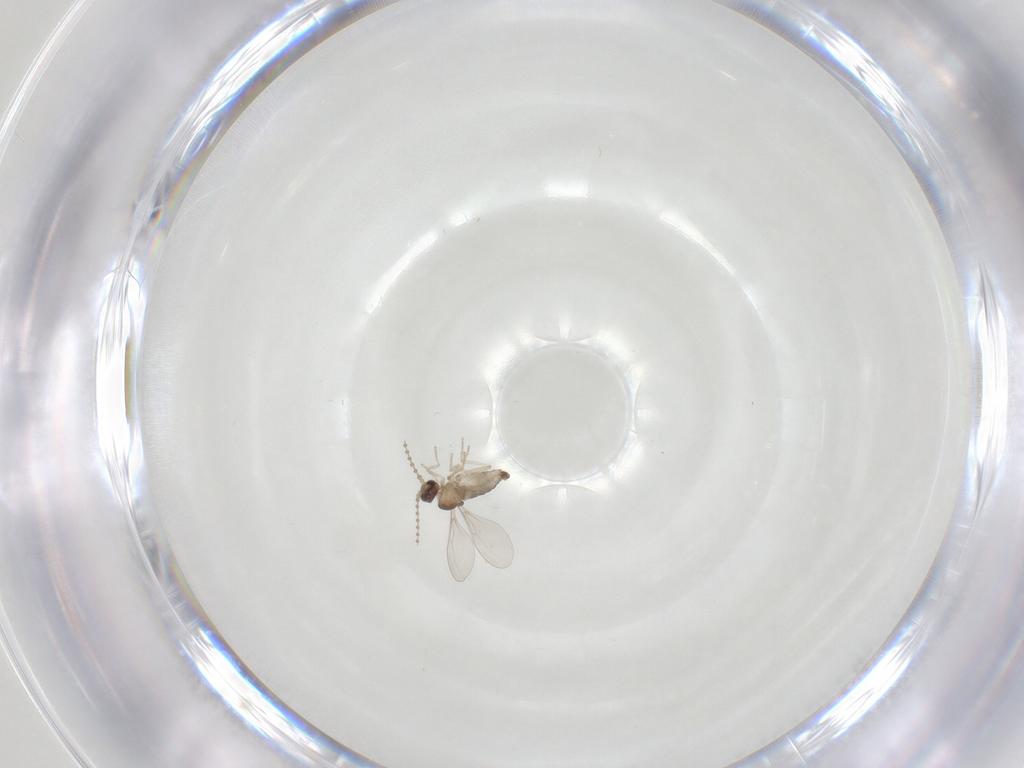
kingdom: Animalia
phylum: Arthropoda
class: Insecta
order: Diptera
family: Cecidomyiidae
